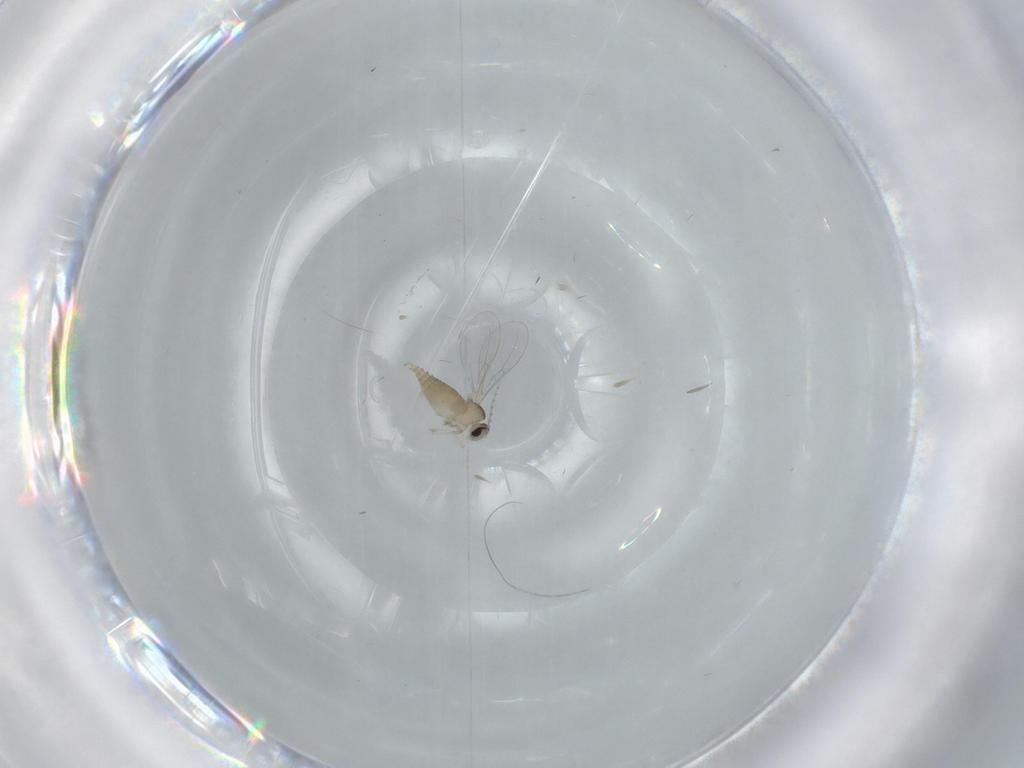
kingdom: Animalia
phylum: Arthropoda
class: Insecta
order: Diptera
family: Cecidomyiidae
